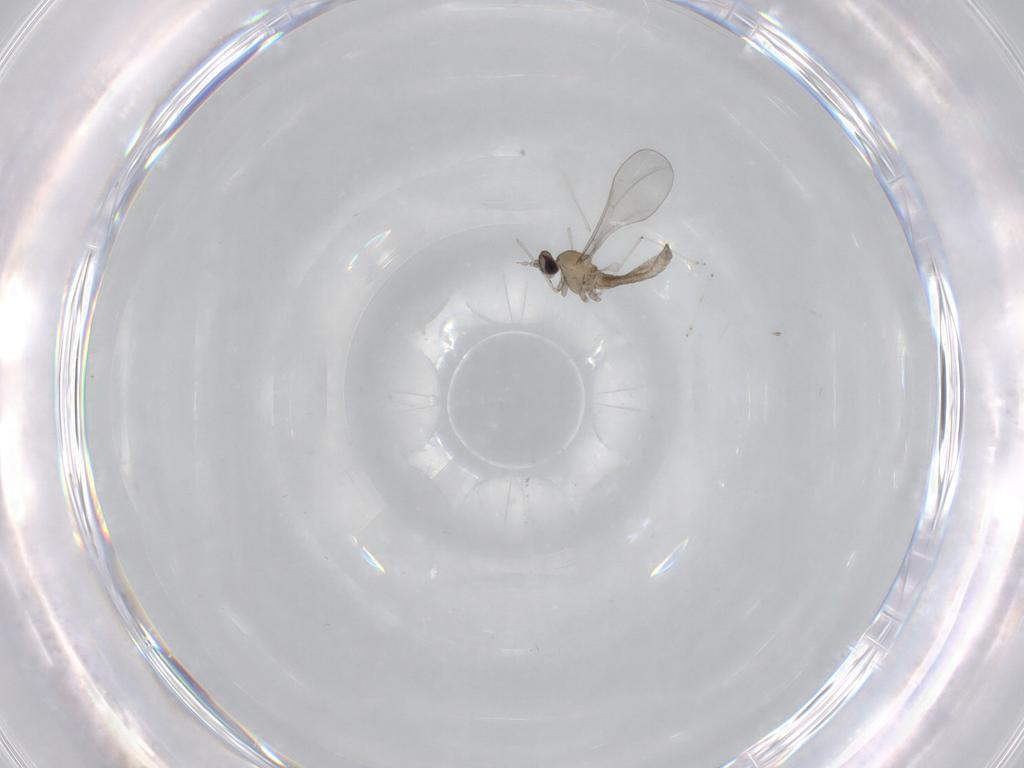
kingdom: Animalia
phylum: Arthropoda
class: Insecta
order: Diptera
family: Cecidomyiidae
